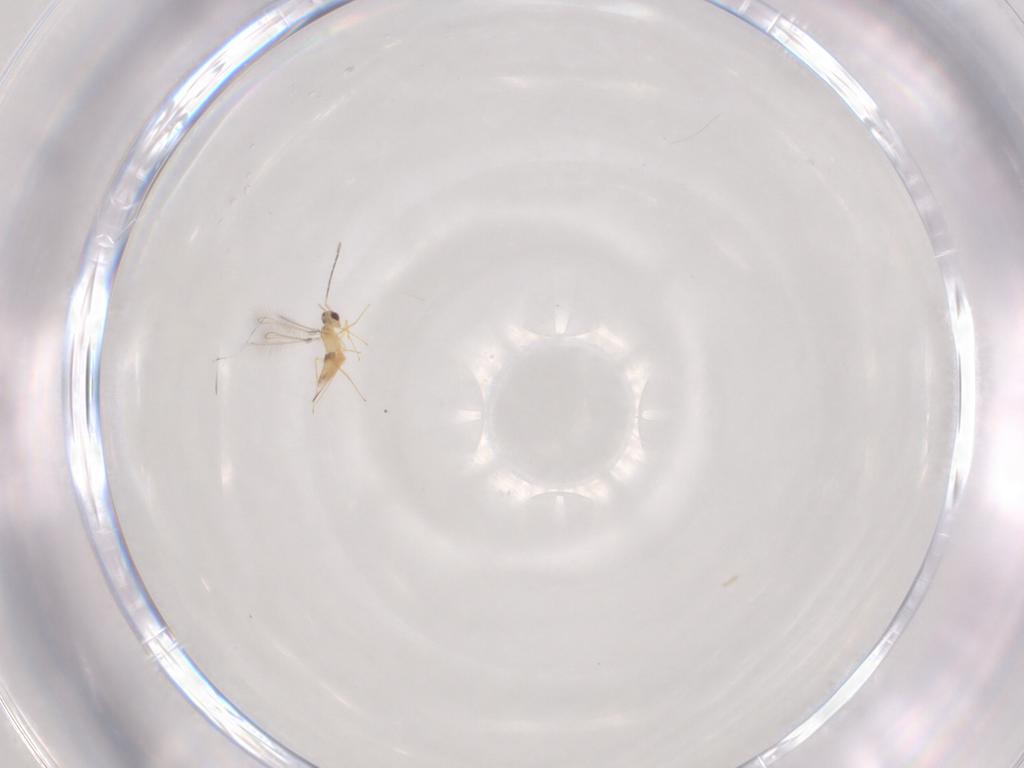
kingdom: Animalia
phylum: Arthropoda
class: Insecta
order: Hymenoptera
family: Mymaridae
